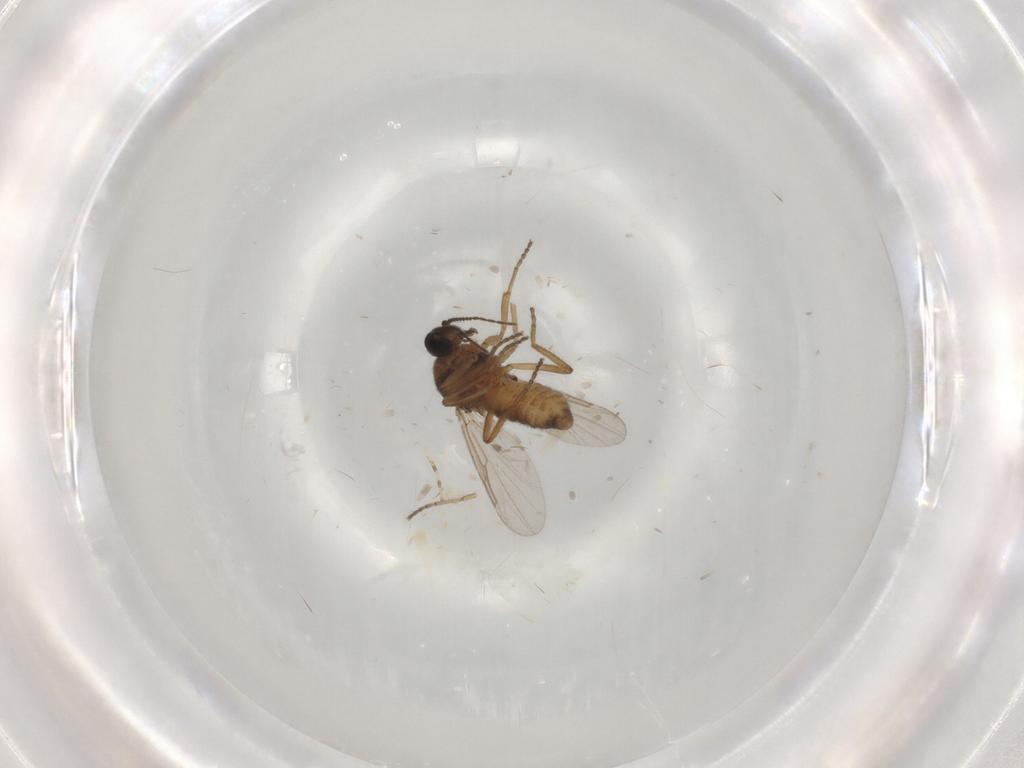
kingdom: Animalia
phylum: Arthropoda
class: Insecta
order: Diptera
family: Ceratopogonidae
